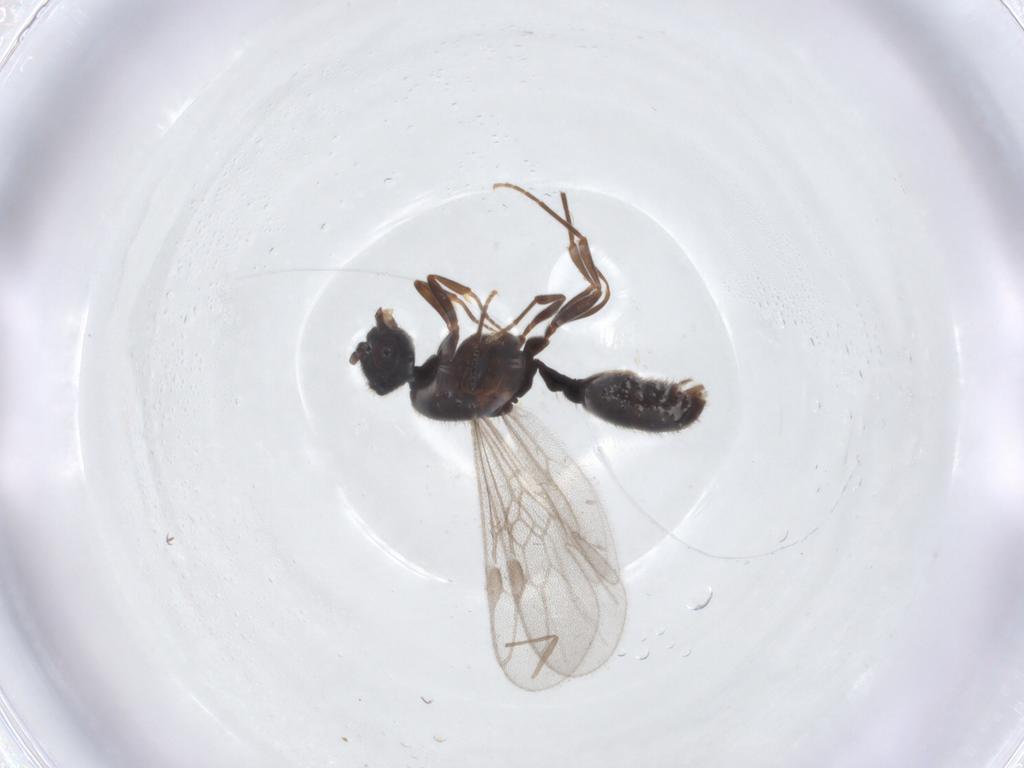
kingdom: Animalia
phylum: Arthropoda
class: Insecta
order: Hymenoptera
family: Formicidae
